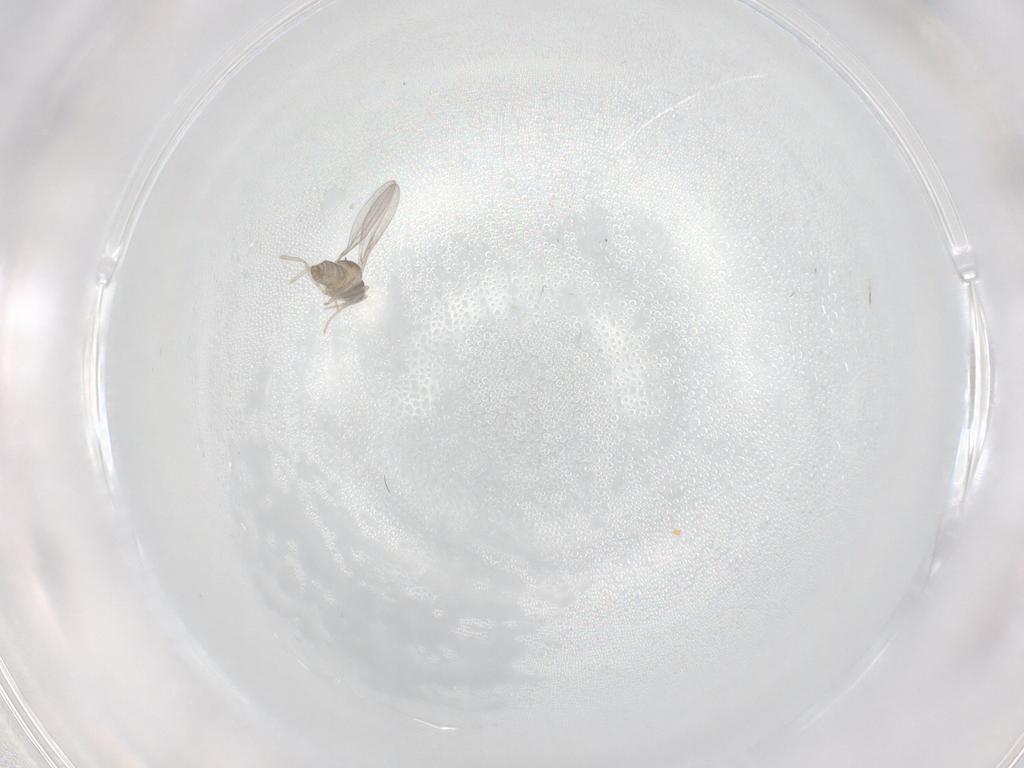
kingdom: Animalia
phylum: Arthropoda
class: Insecta
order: Diptera
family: Cecidomyiidae
